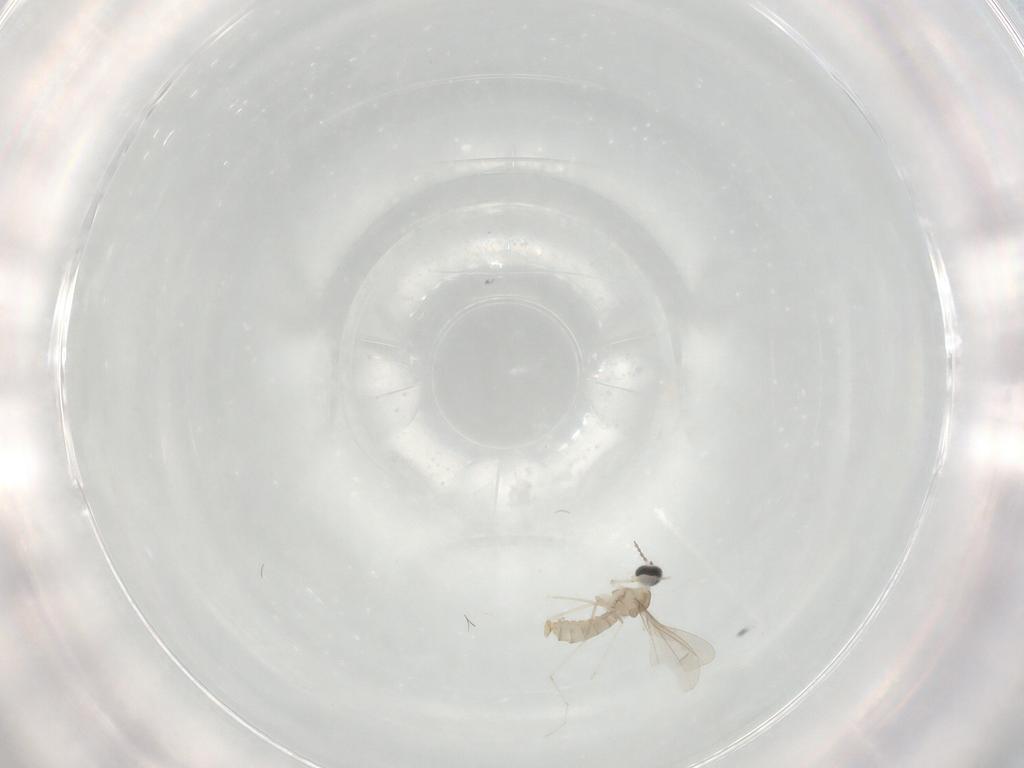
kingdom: Animalia
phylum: Arthropoda
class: Insecta
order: Diptera
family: Cecidomyiidae
